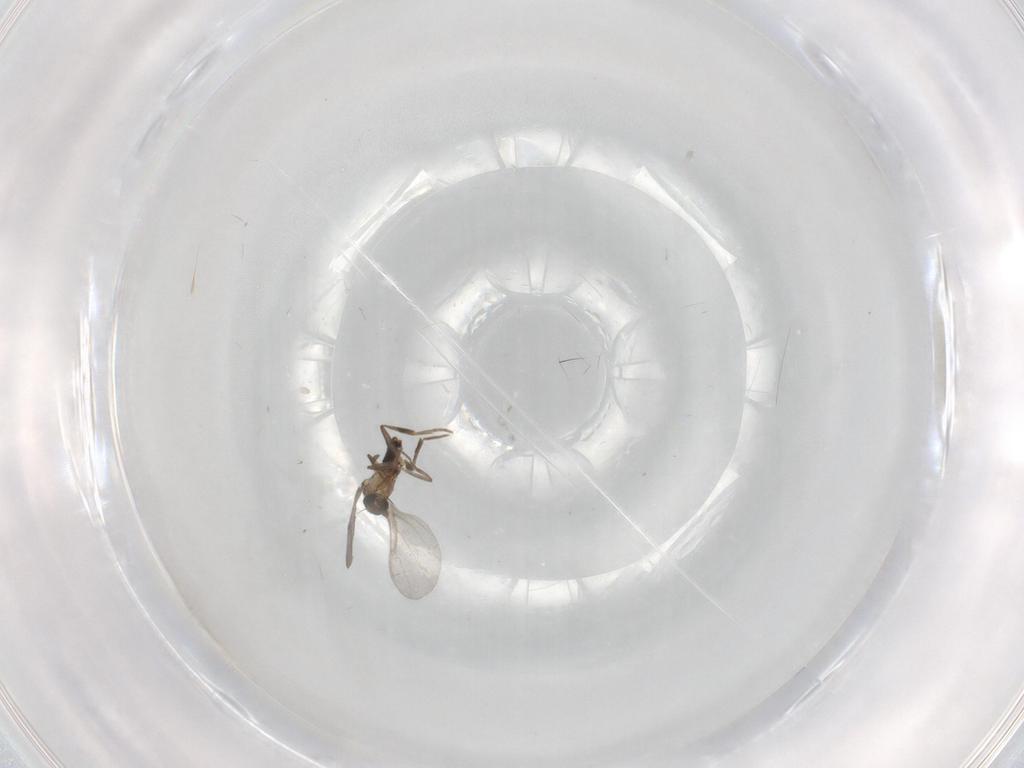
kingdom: Animalia
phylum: Arthropoda
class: Insecta
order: Diptera
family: Phoridae
